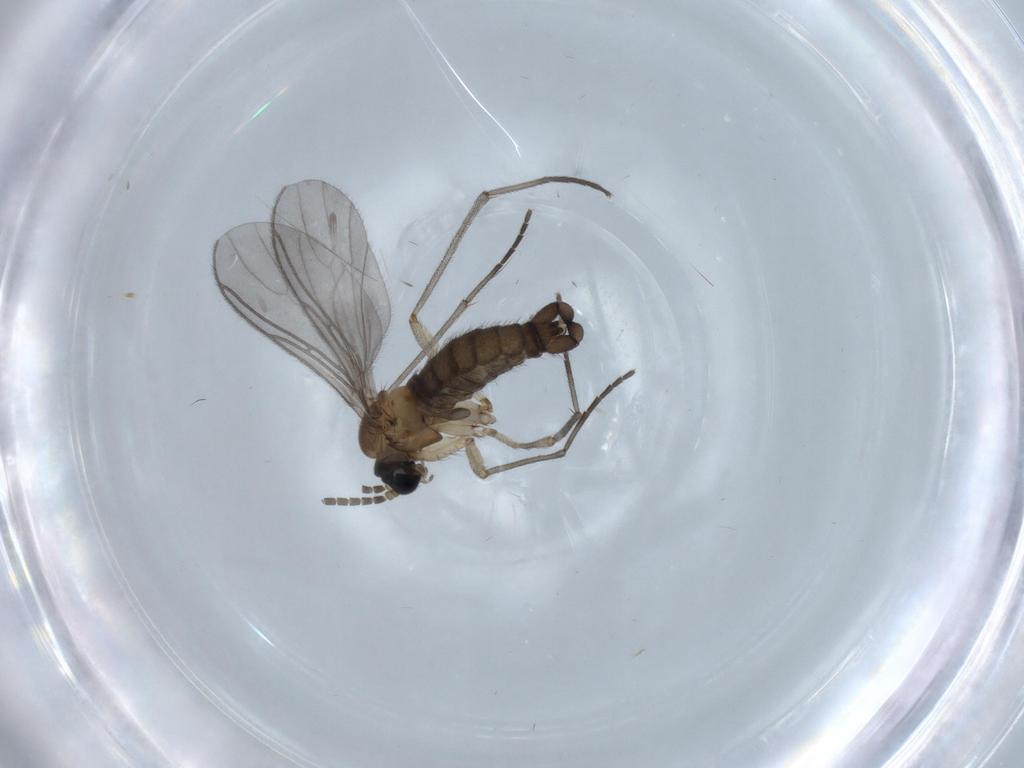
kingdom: Animalia
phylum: Arthropoda
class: Insecta
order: Diptera
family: Sciaridae
